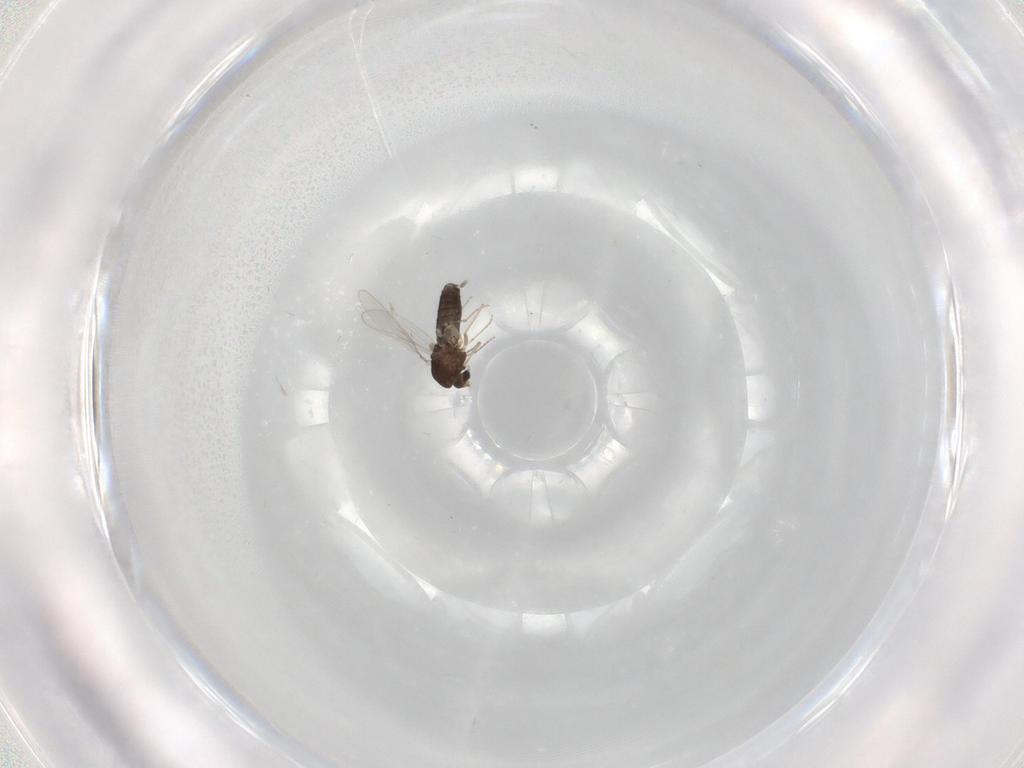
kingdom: Animalia
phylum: Arthropoda
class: Insecta
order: Diptera
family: Chironomidae
